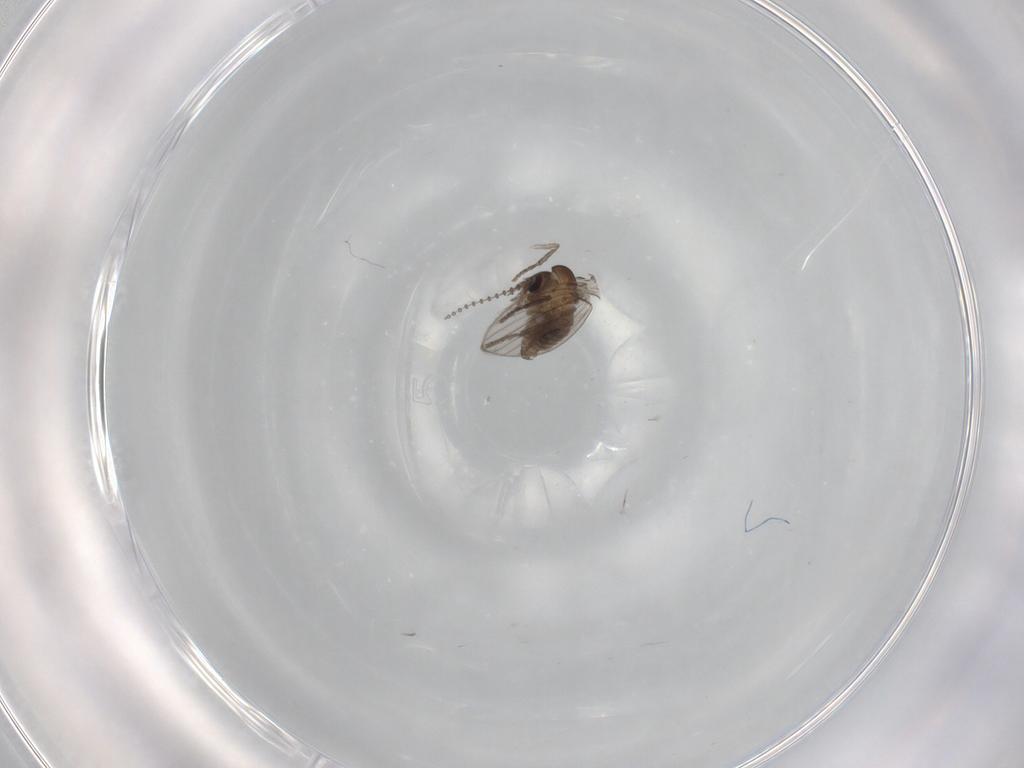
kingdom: Animalia
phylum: Arthropoda
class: Insecta
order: Diptera
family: Psychodidae
